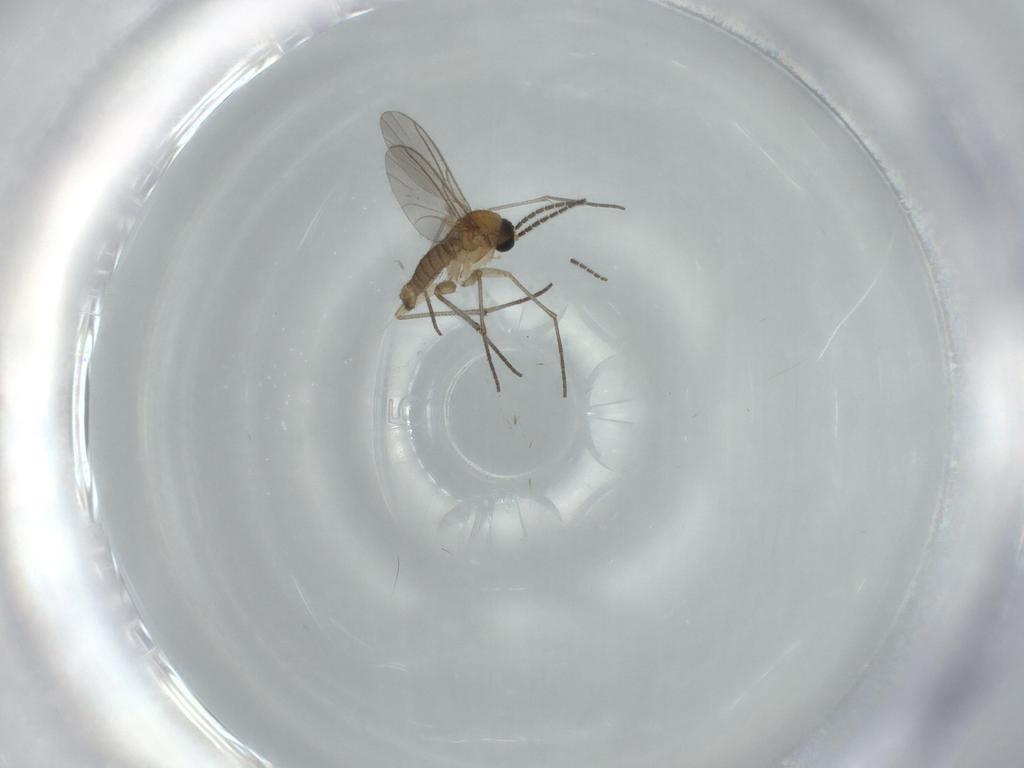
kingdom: Animalia
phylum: Arthropoda
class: Insecta
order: Diptera
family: Sciaridae
